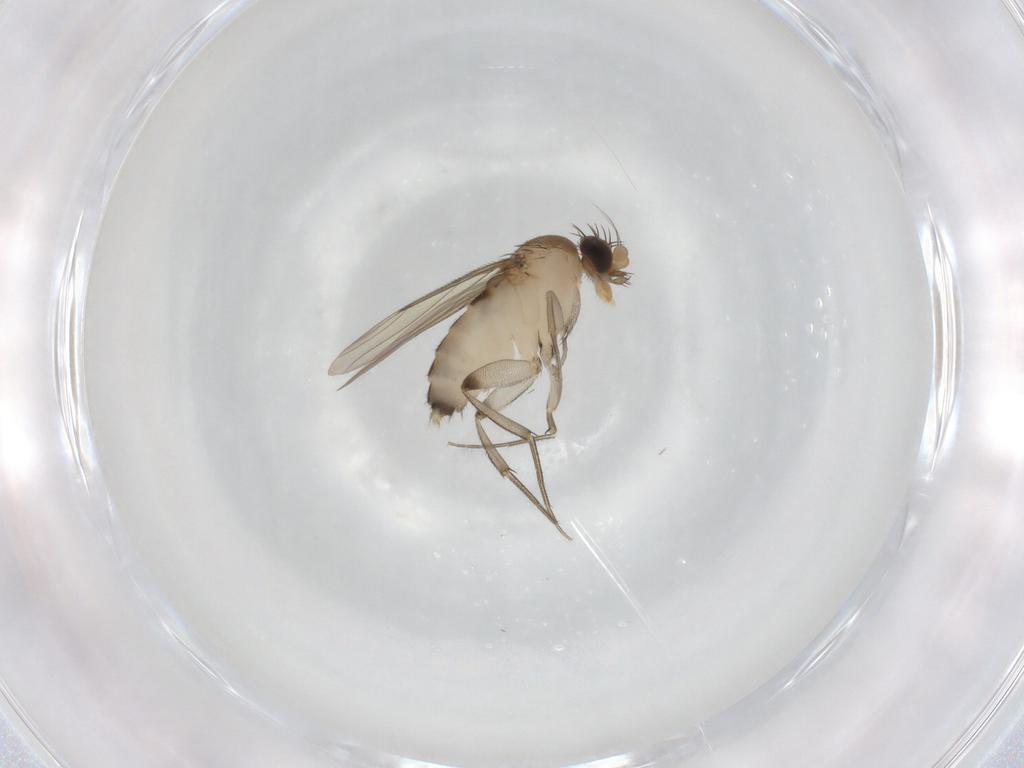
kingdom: Animalia
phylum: Arthropoda
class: Insecta
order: Diptera
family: Phoridae
